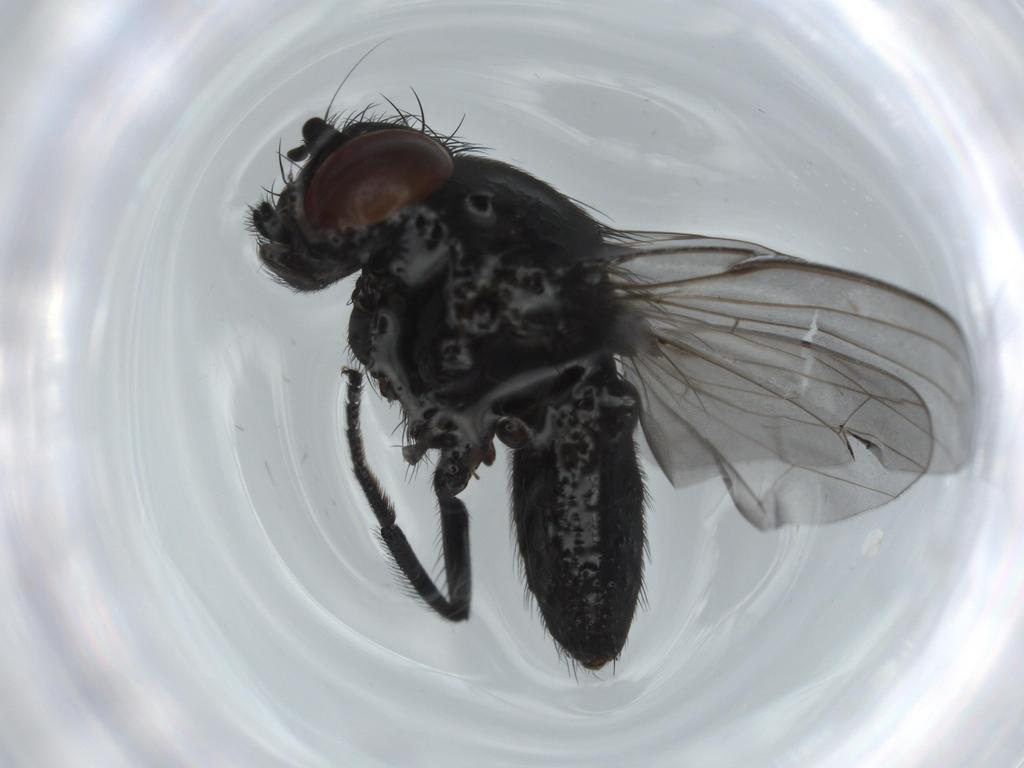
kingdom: Animalia
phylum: Arthropoda
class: Insecta
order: Diptera
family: Milichiidae
